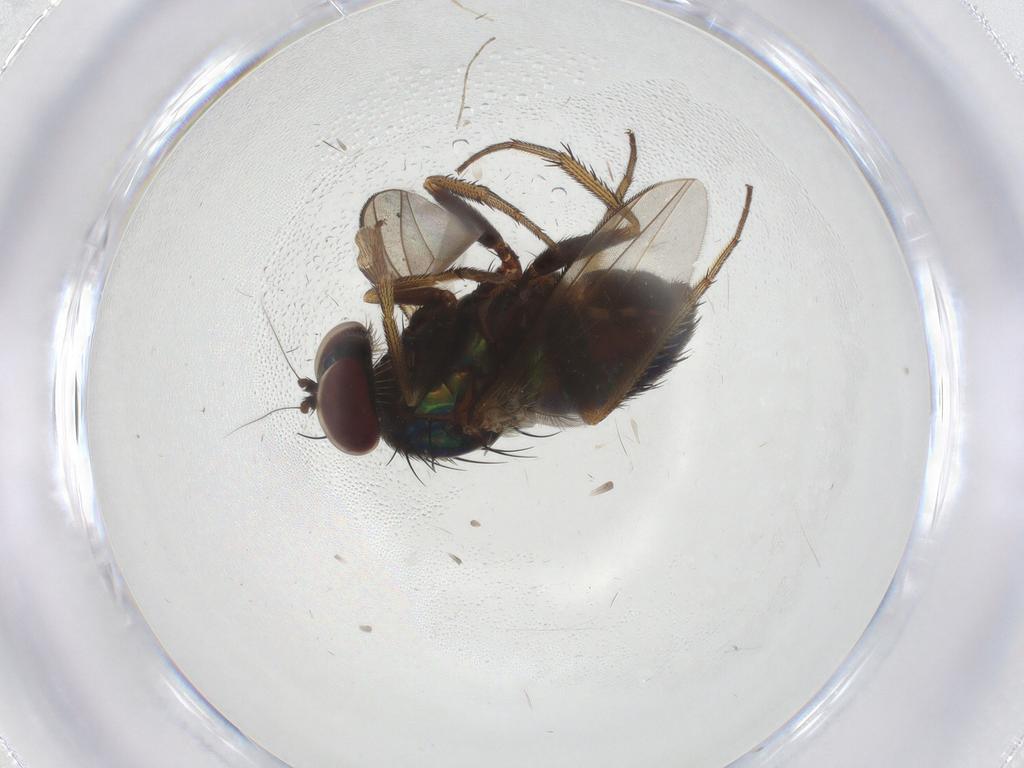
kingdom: Animalia
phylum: Arthropoda
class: Insecta
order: Diptera
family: Dolichopodidae
